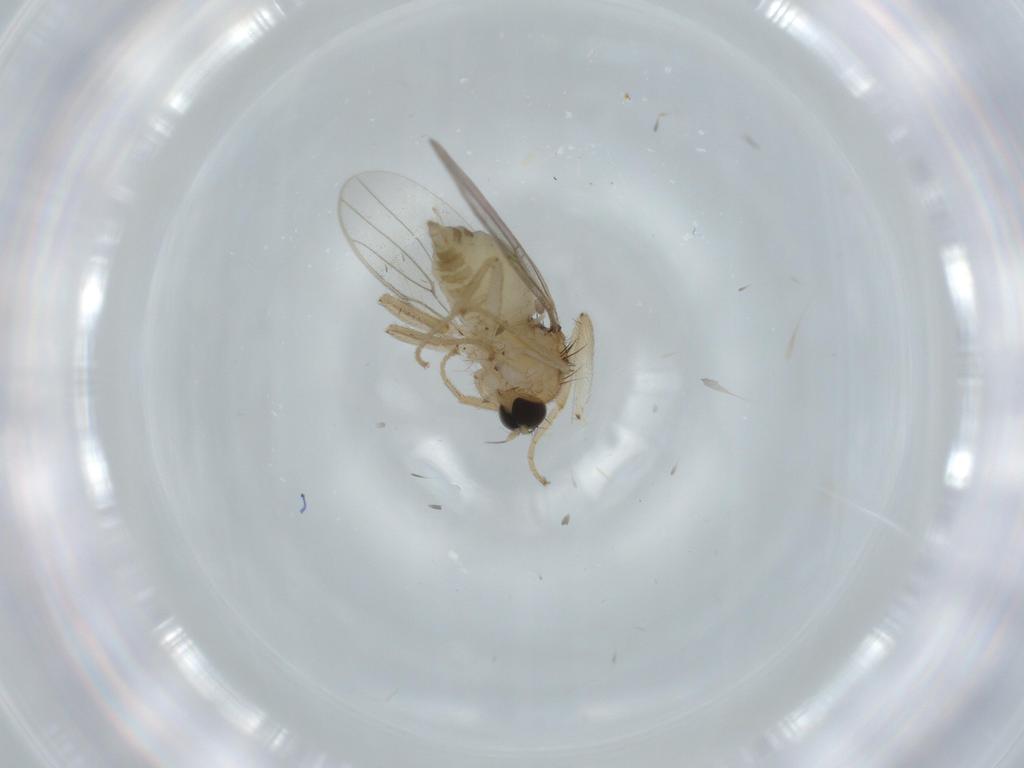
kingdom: Animalia
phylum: Arthropoda
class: Insecta
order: Diptera
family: Hybotidae
